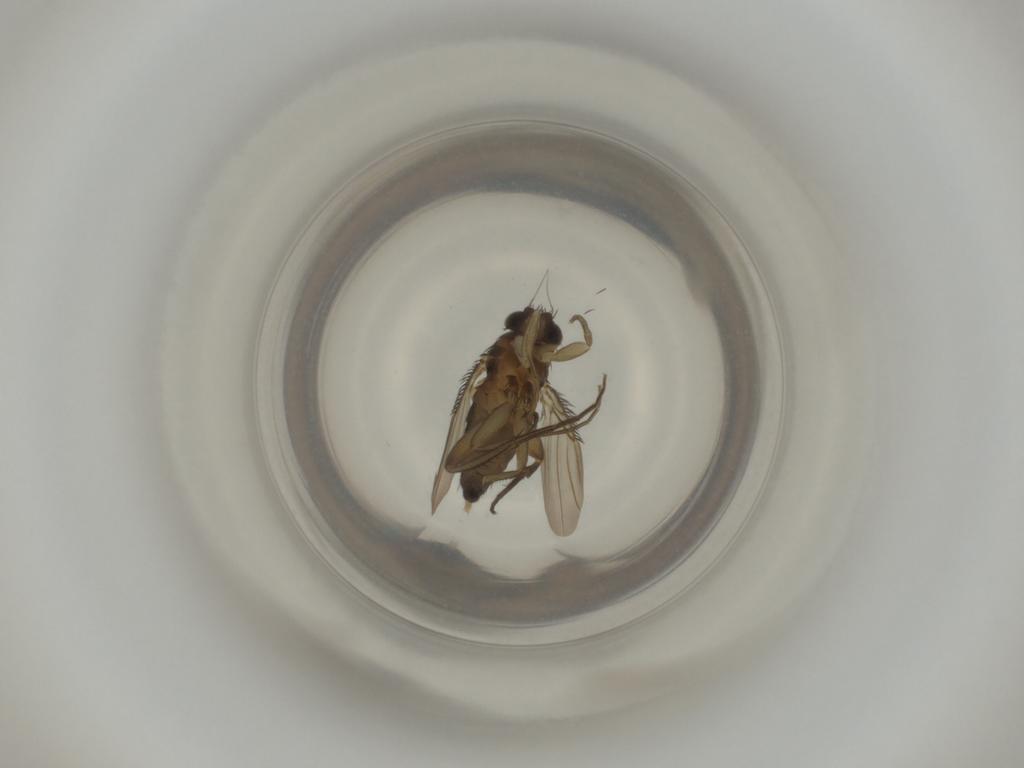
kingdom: Animalia
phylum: Arthropoda
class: Insecta
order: Diptera
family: Phoridae
